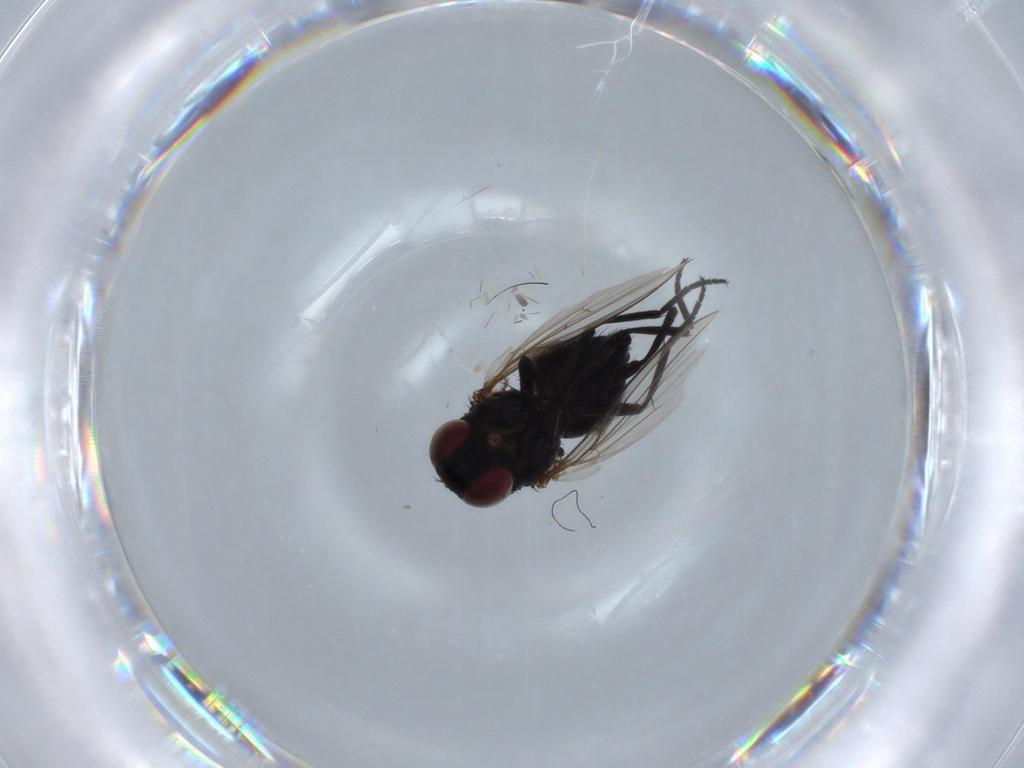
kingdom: Animalia
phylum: Arthropoda
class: Insecta
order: Diptera
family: Agromyzidae
